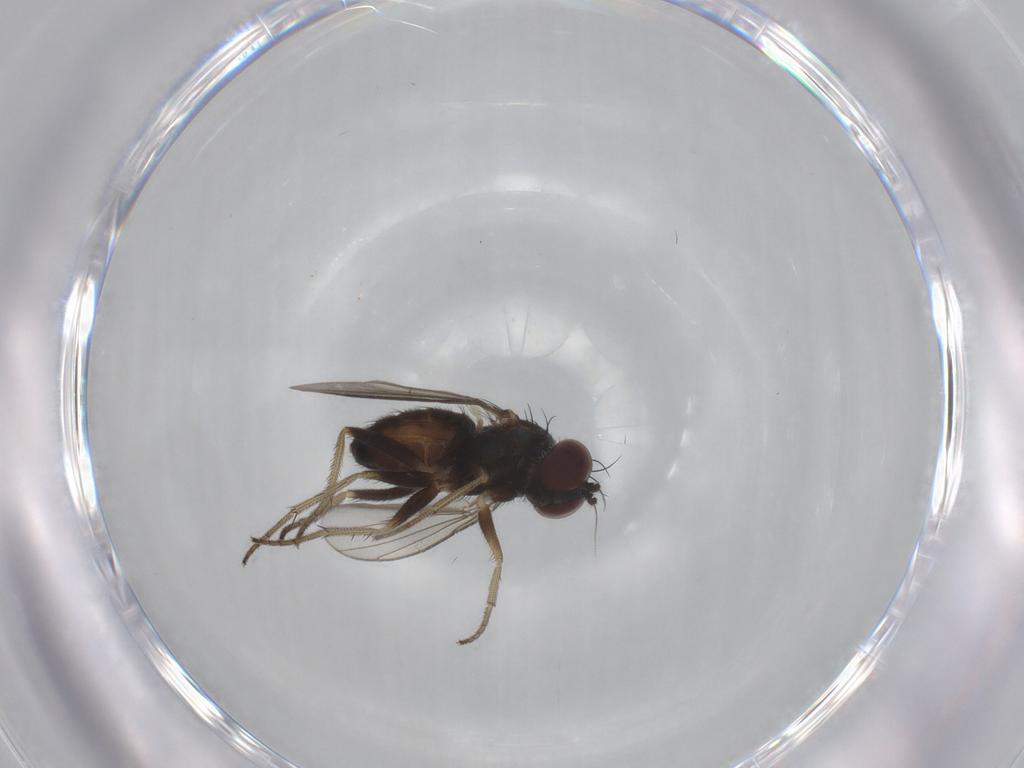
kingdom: Animalia
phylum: Arthropoda
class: Insecta
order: Diptera
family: Dolichopodidae
